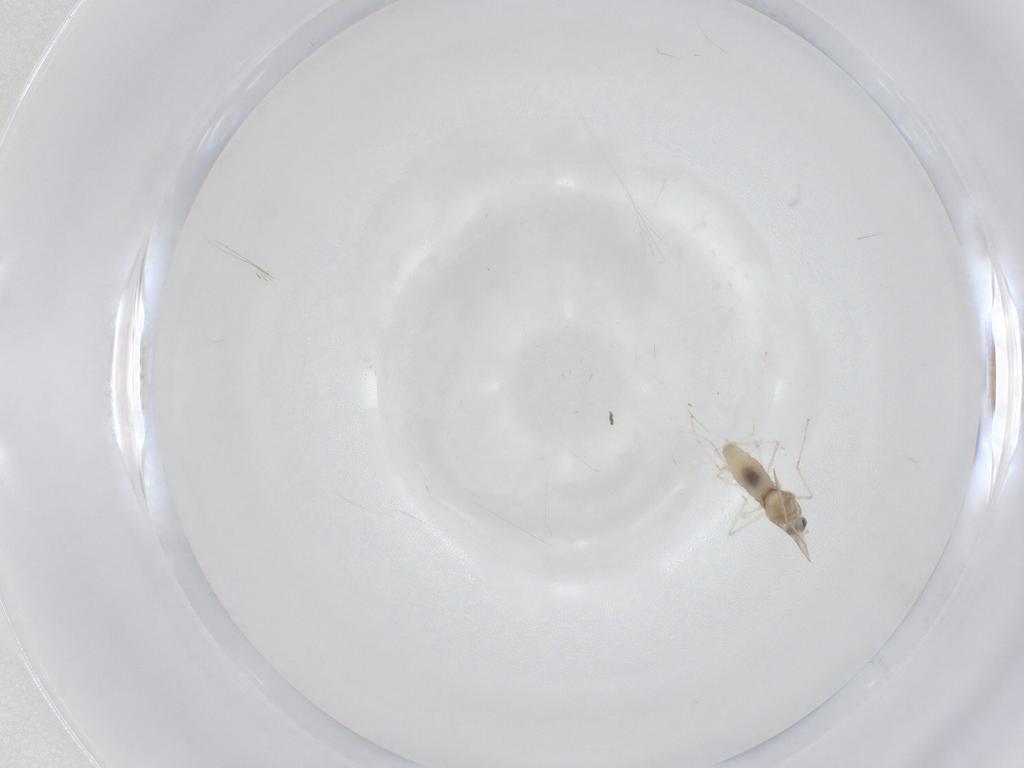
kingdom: Animalia
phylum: Arthropoda
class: Insecta
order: Diptera
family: Cecidomyiidae
